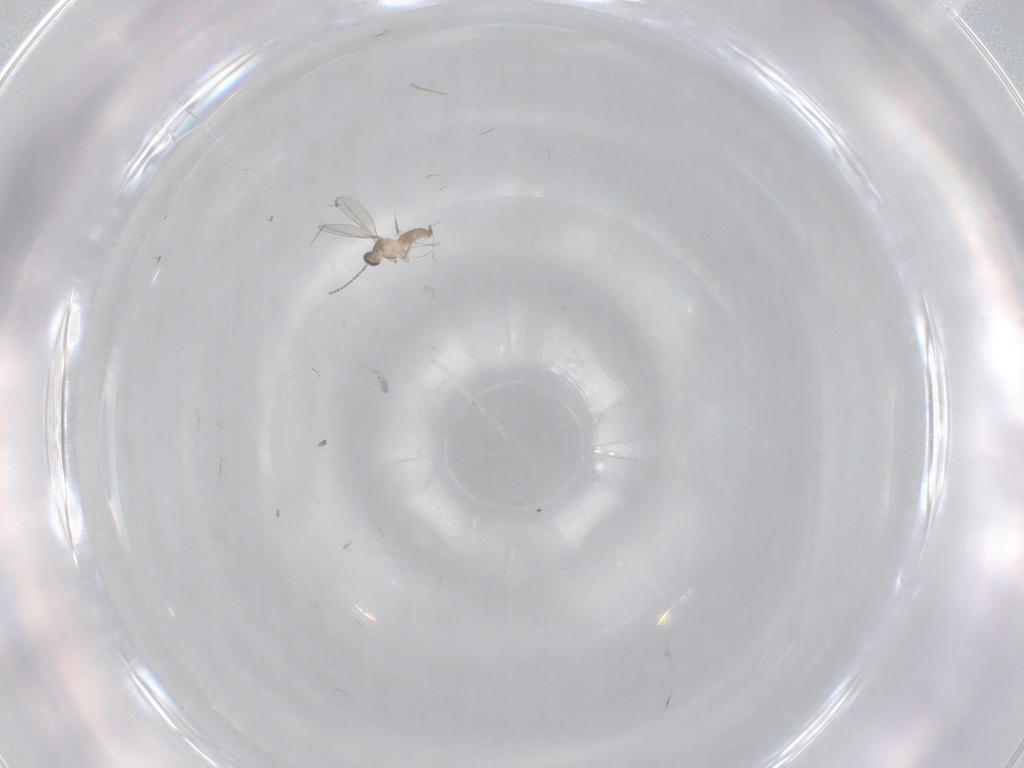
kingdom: Animalia
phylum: Arthropoda
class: Insecta
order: Diptera
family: Cecidomyiidae
